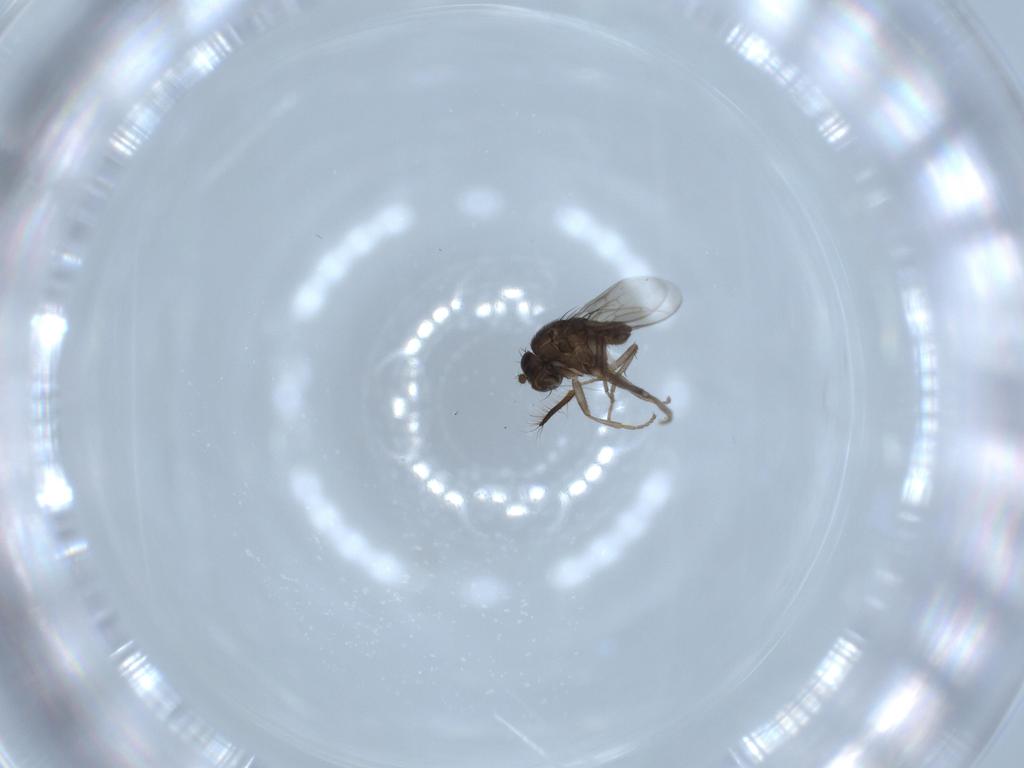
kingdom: Animalia
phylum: Arthropoda
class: Insecta
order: Diptera
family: Sphaeroceridae
